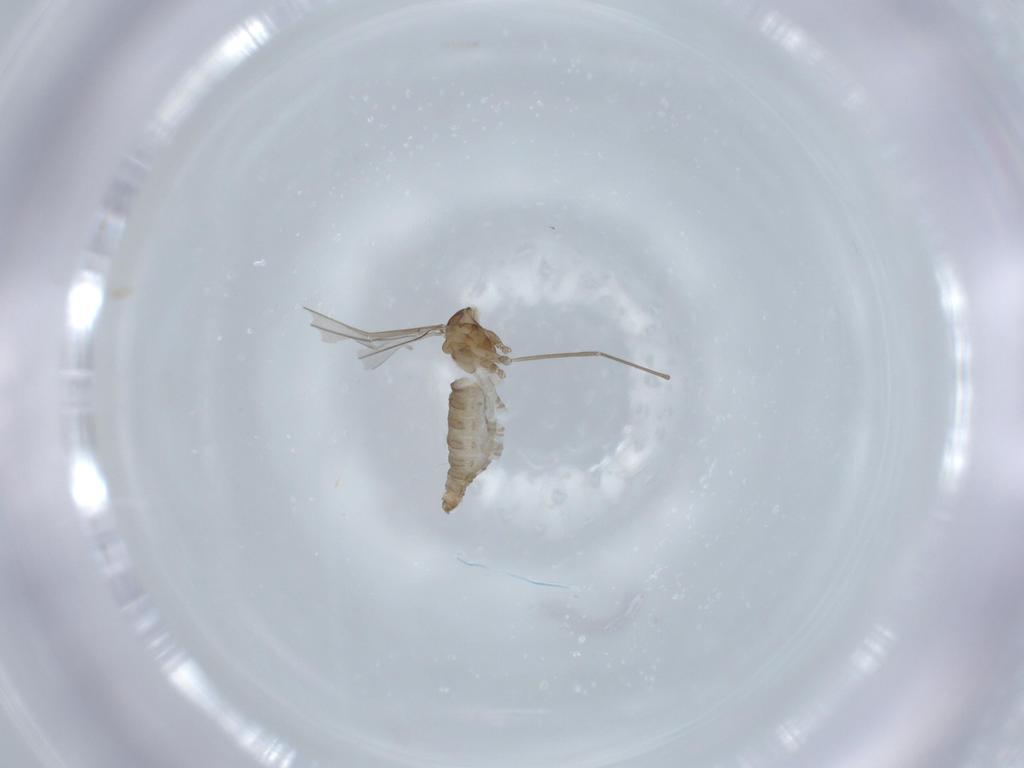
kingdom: Animalia
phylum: Arthropoda
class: Insecta
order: Diptera
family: Cecidomyiidae
